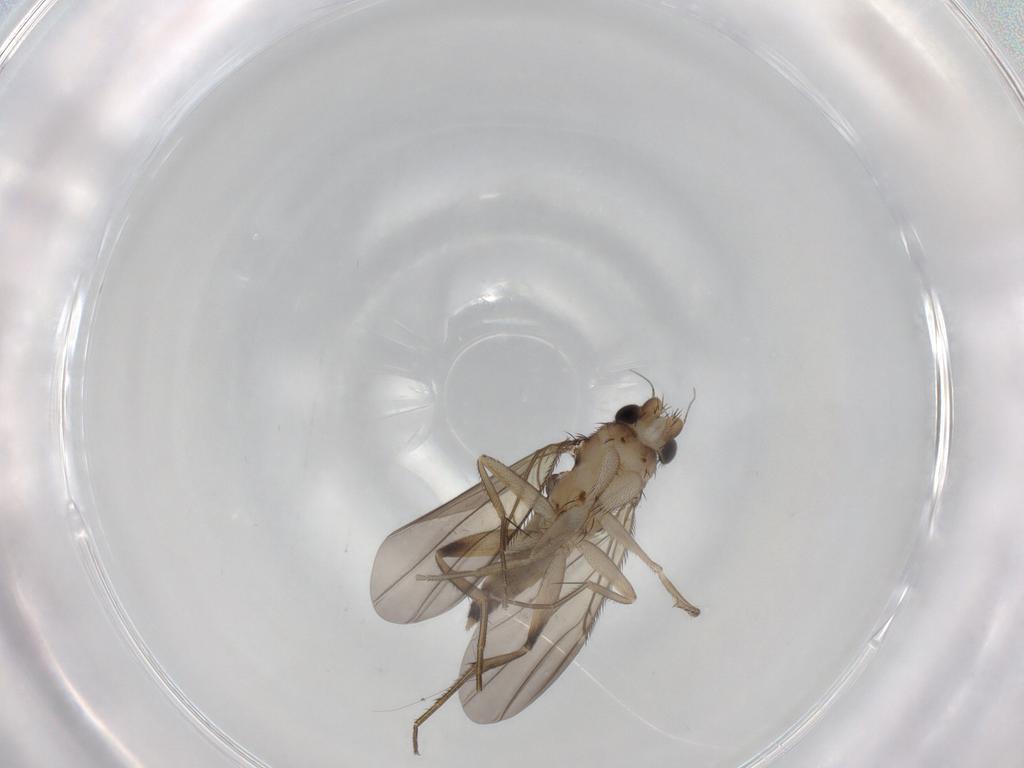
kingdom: Animalia
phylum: Arthropoda
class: Insecta
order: Diptera
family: Phoridae
